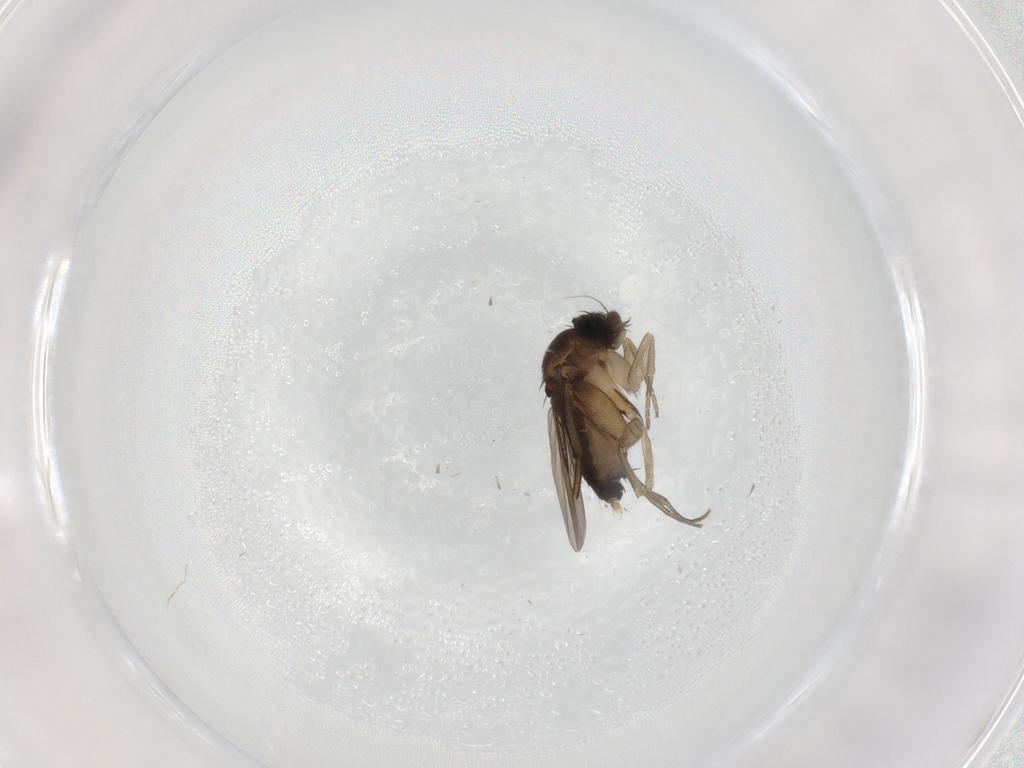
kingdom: Animalia
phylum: Arthropoda
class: Insecta
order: Diptera
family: Phoridae
